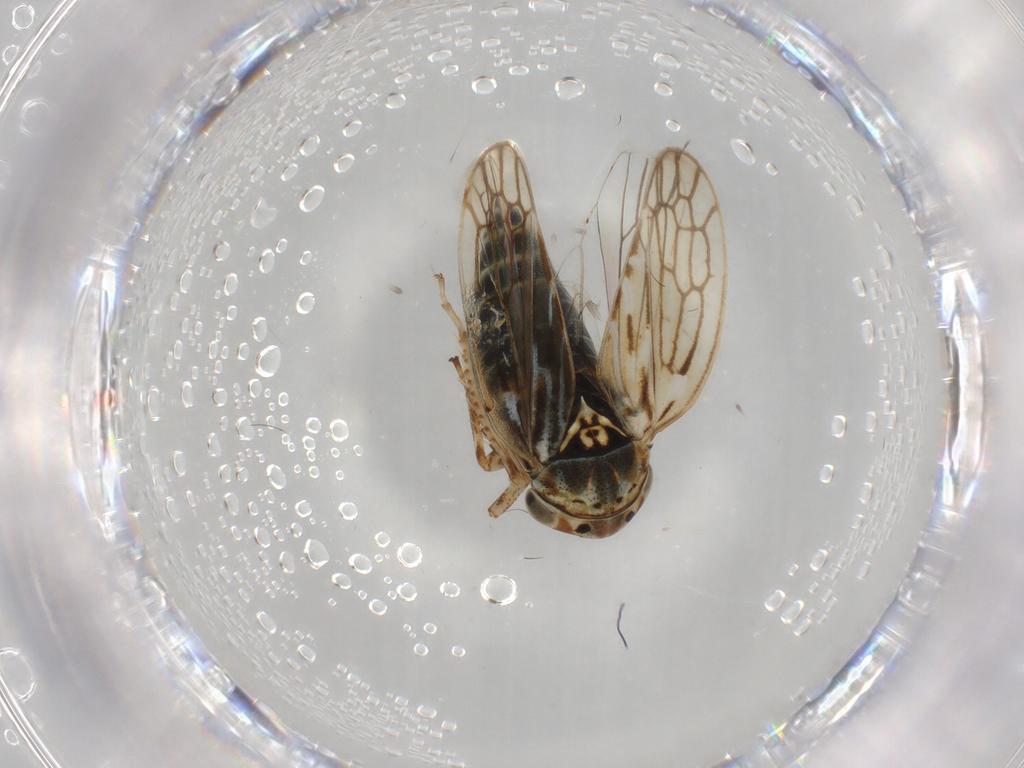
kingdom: Animalia
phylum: Arthropoda
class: Insecta
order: Hemiptera
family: Cicadellidae
